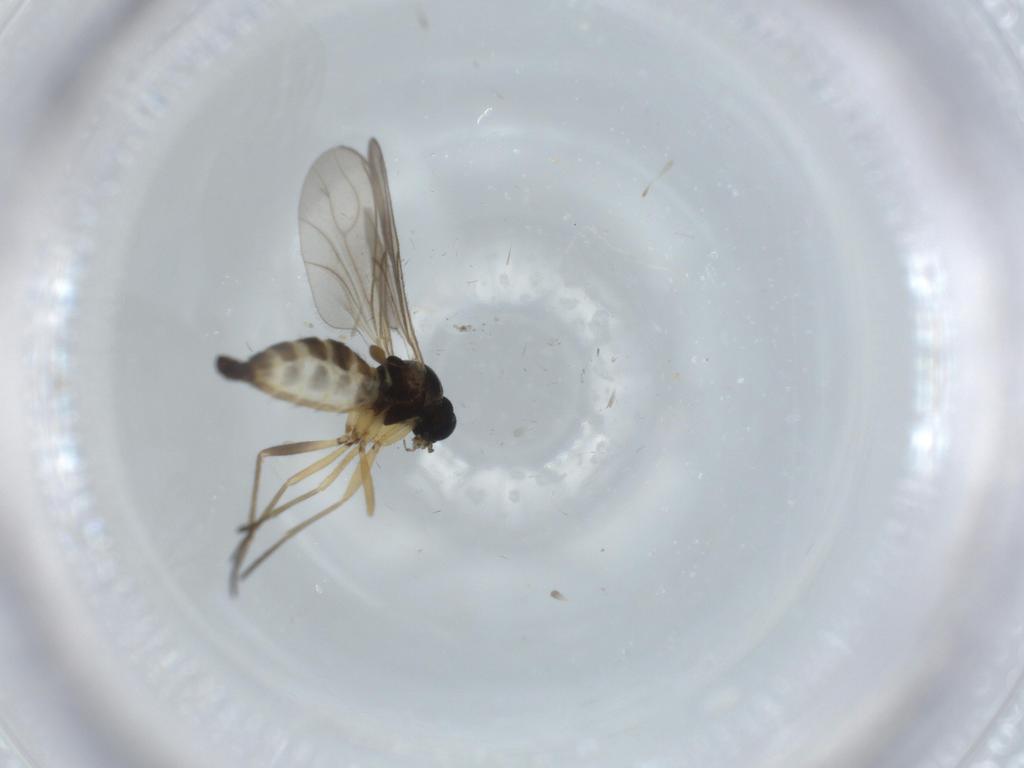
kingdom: Animalia
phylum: Arthropoda
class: Insecta
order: Diptera
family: Sciaridae
